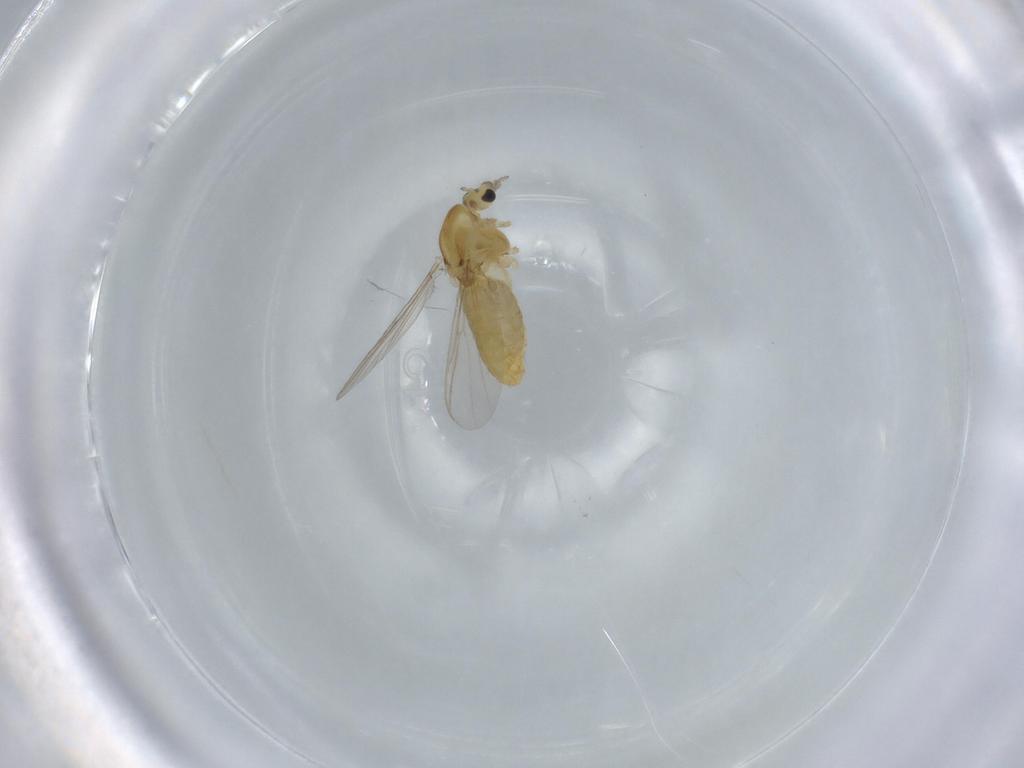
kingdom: Animalia
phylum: Arthropoda
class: Insecta
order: Diptera
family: Chironomidae
